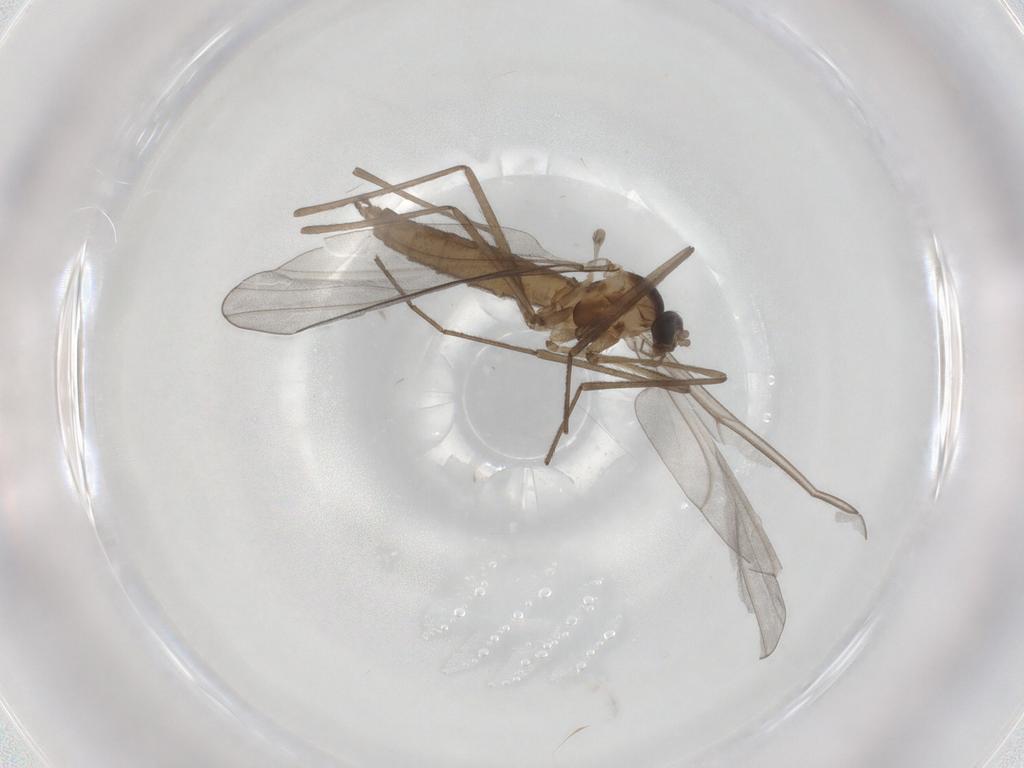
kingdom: Animalia
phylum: Arthropoda
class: Insecta
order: Diptera
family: Cecidomyiidae
